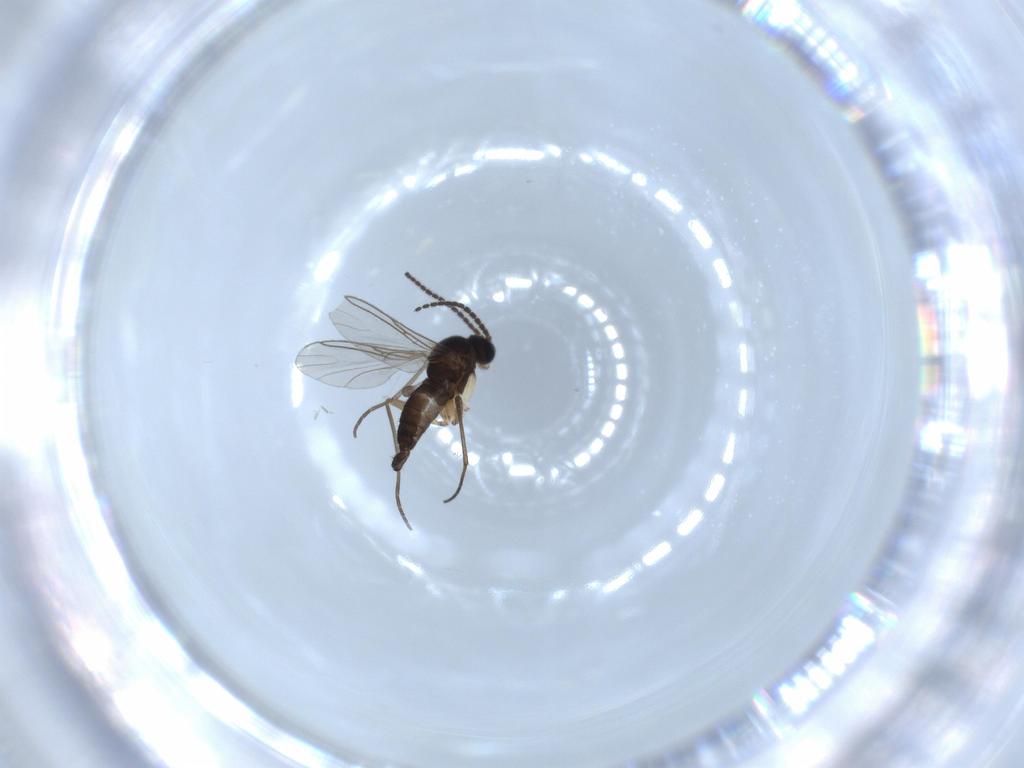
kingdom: Animalia
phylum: Arthropoda
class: Insecta
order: Diptera
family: Sciaridae
